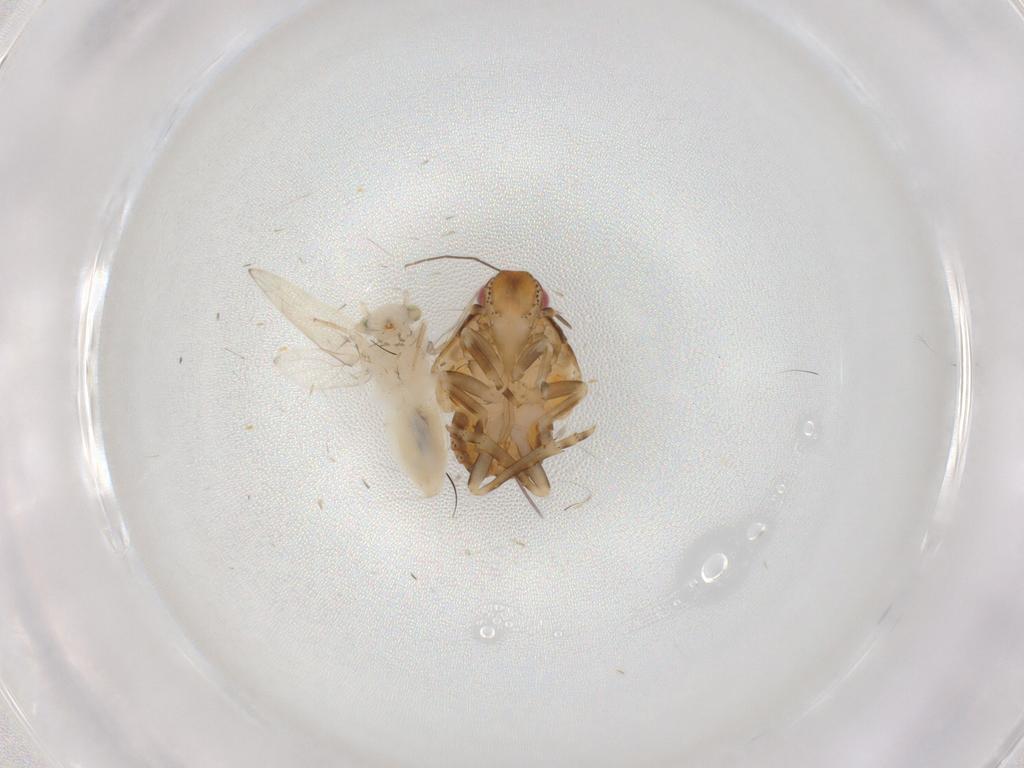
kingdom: Animalia
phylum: Arthropoda
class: Insecta
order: Hemiptera
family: Flatidae
